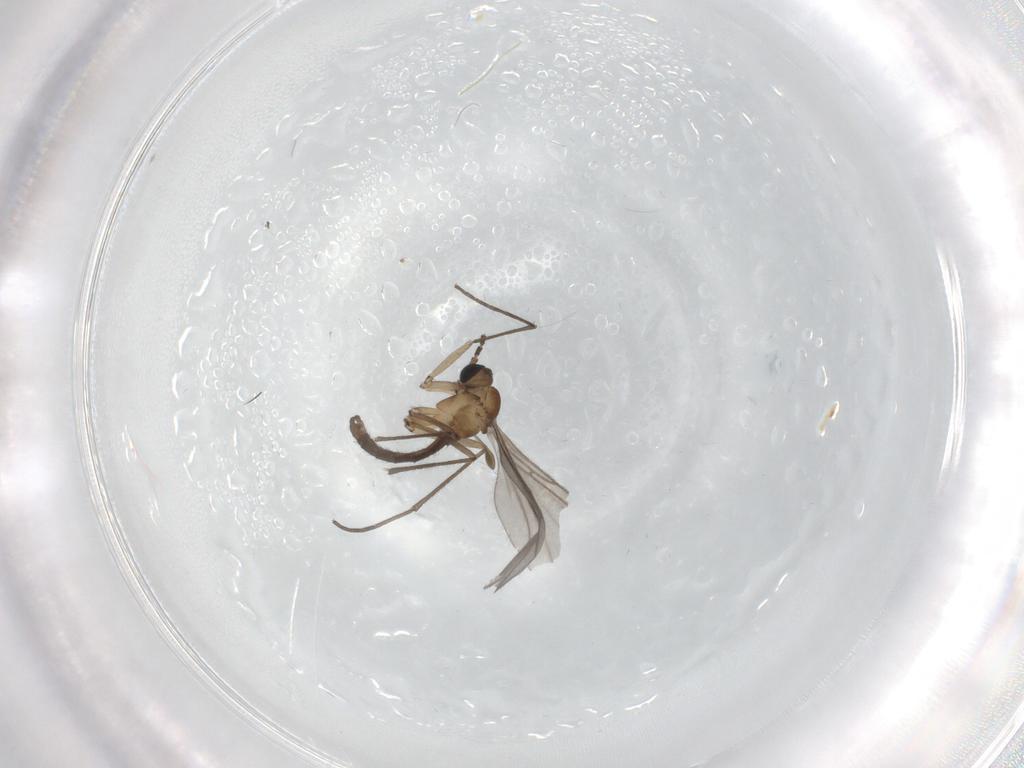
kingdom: Animalia
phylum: Arthropoda
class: Insecta
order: Diptera
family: Sciaridae
